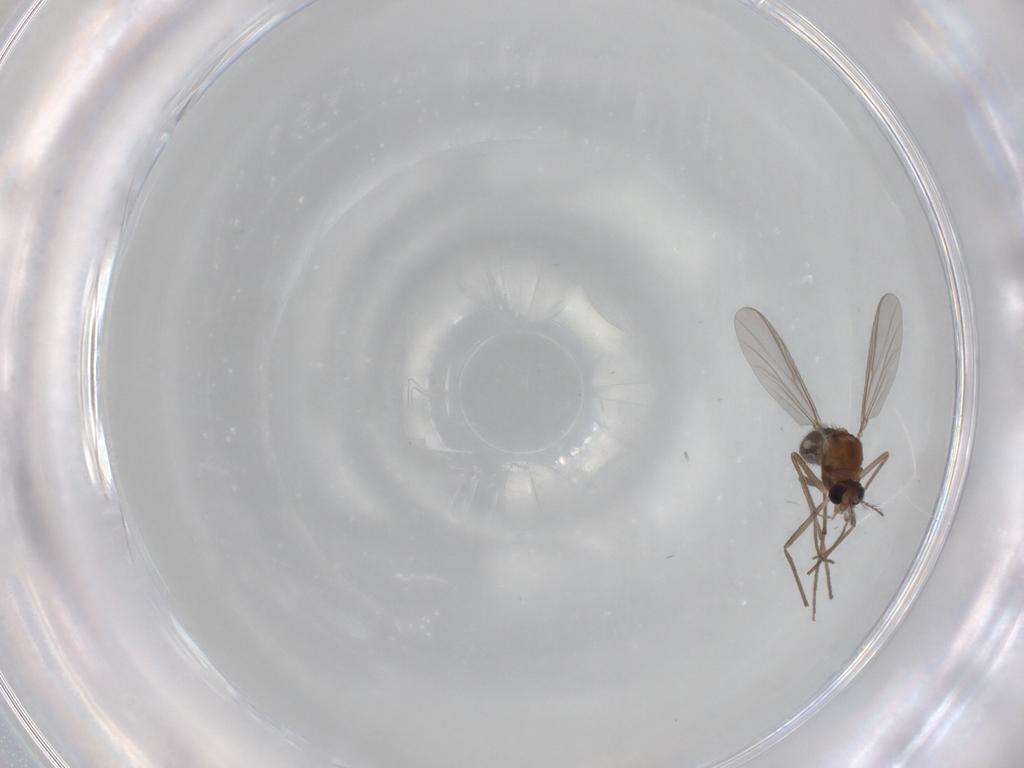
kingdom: Animalia
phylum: Arthropoda
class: Insecta
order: Diptera
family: Chironomidae
